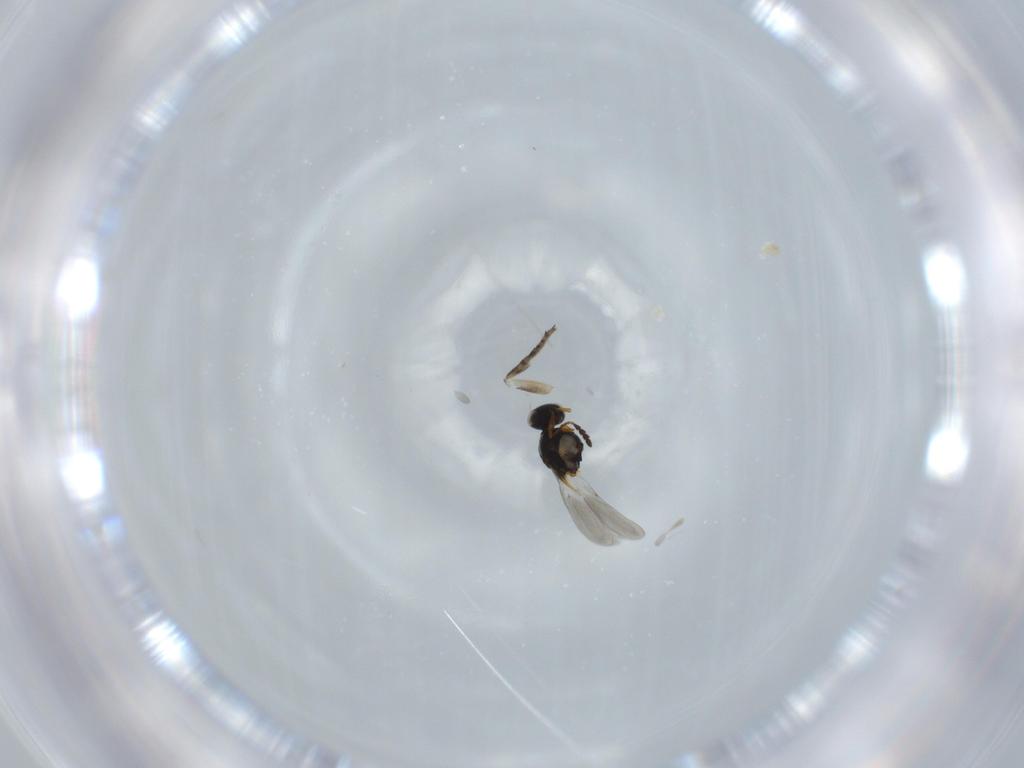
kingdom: Animalia
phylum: Arthropoda
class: Insecta
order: Hymenoptera
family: Platygastridae
